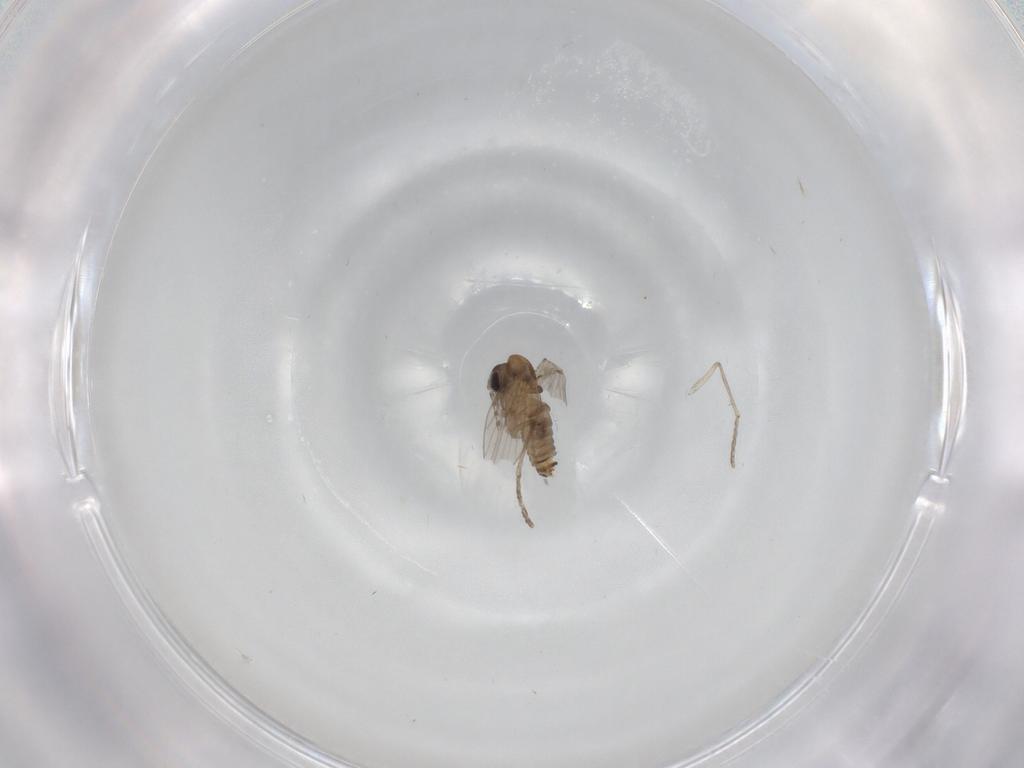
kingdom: Animalia
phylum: Arthropoda
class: Insecta
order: Diptera
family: Psychodidae
